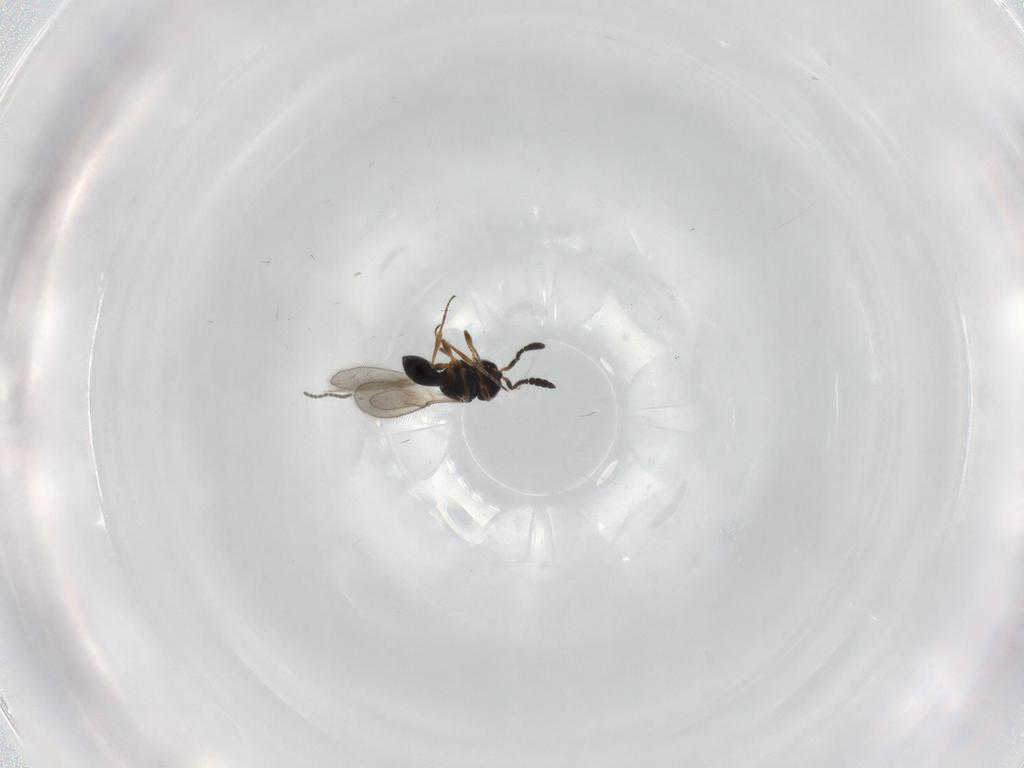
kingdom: Animalia
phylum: Arthropoda
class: Insecta
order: Hymenoptera
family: Scelionidae
